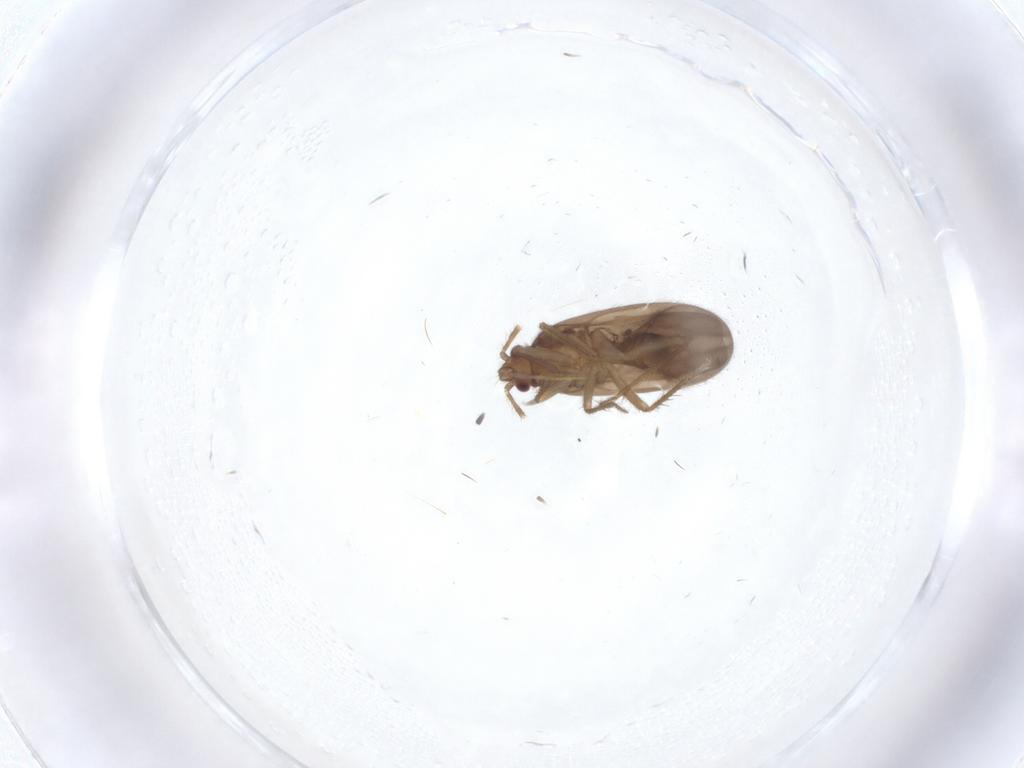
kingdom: Animalia
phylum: Arthropoda
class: Insecta
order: Hemiptera
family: Ceratocombidae
